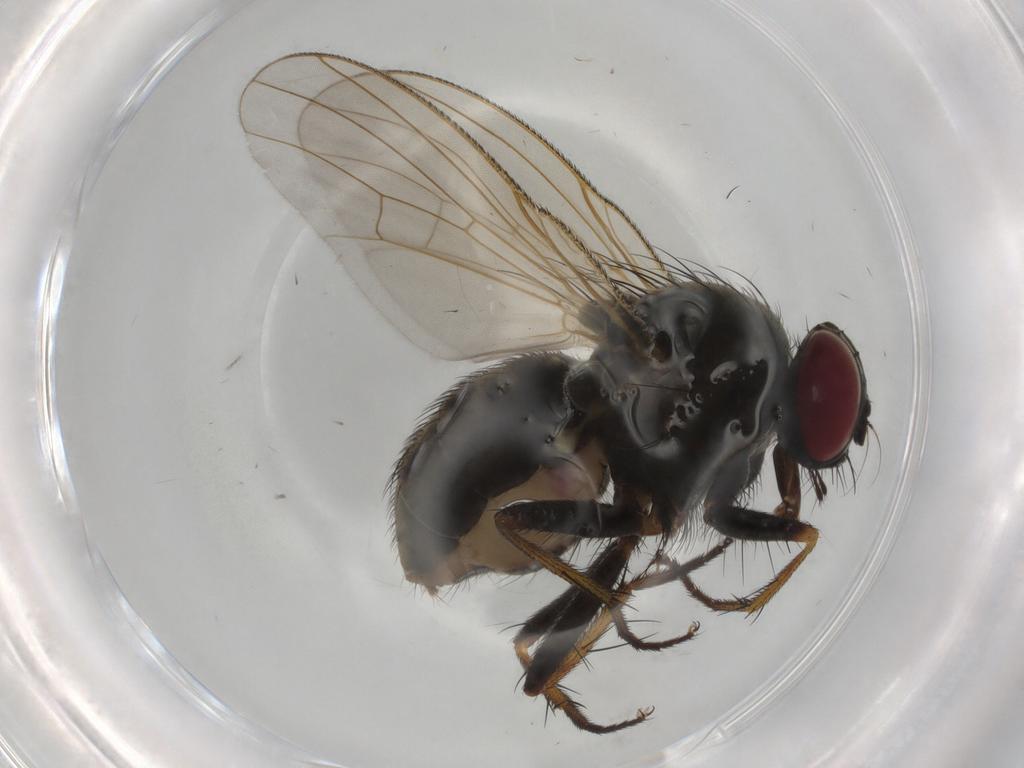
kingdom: Animalia
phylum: Arthropoda
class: Insecta
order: Diptera
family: Muscidae
